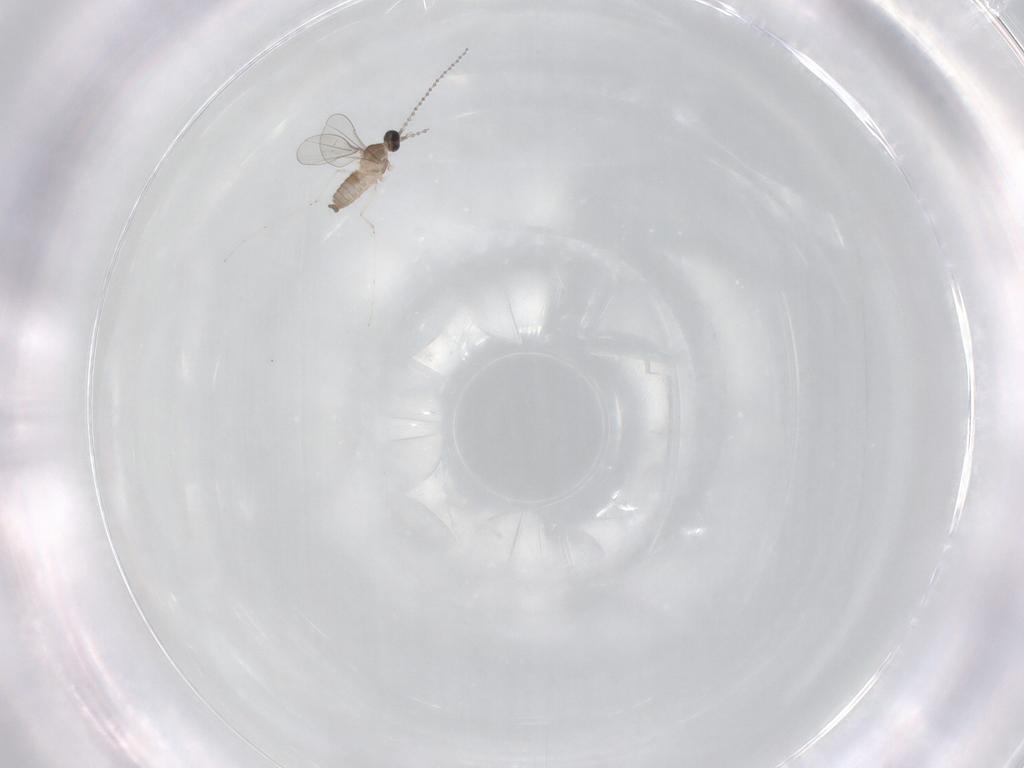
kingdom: Animalia
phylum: Arthropoda
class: Insecta
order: Diptera
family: Cecidomyiidae
